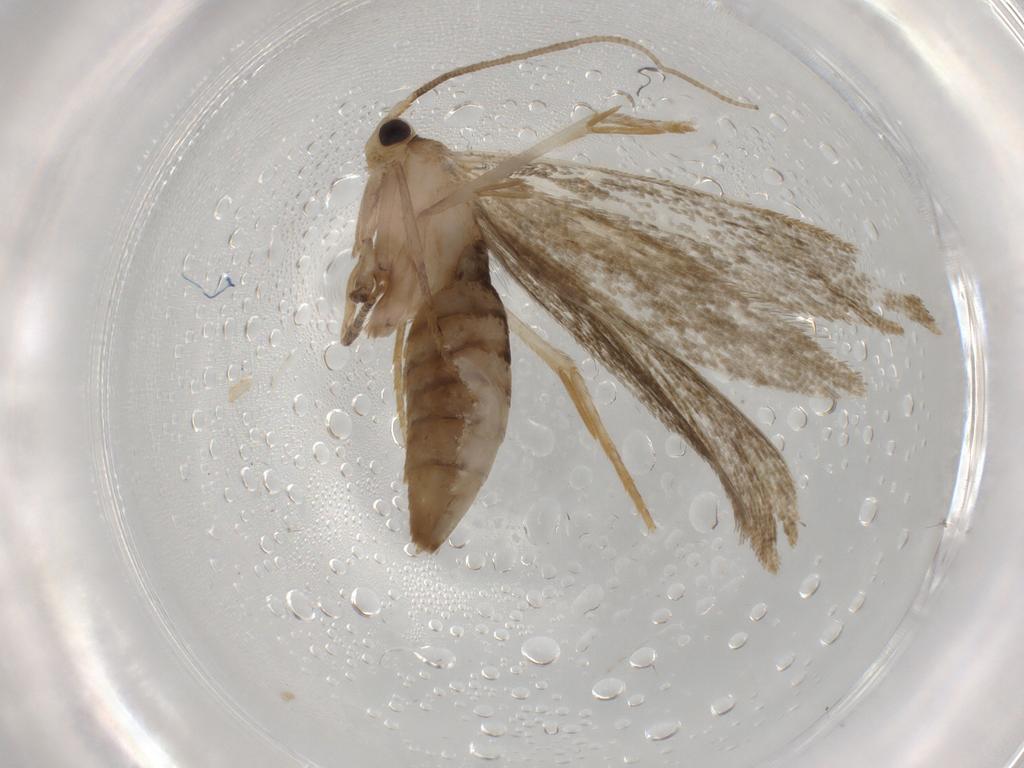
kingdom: Animalia
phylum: Arthropoda
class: Insecta
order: Lepidoptera
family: Tineidae
